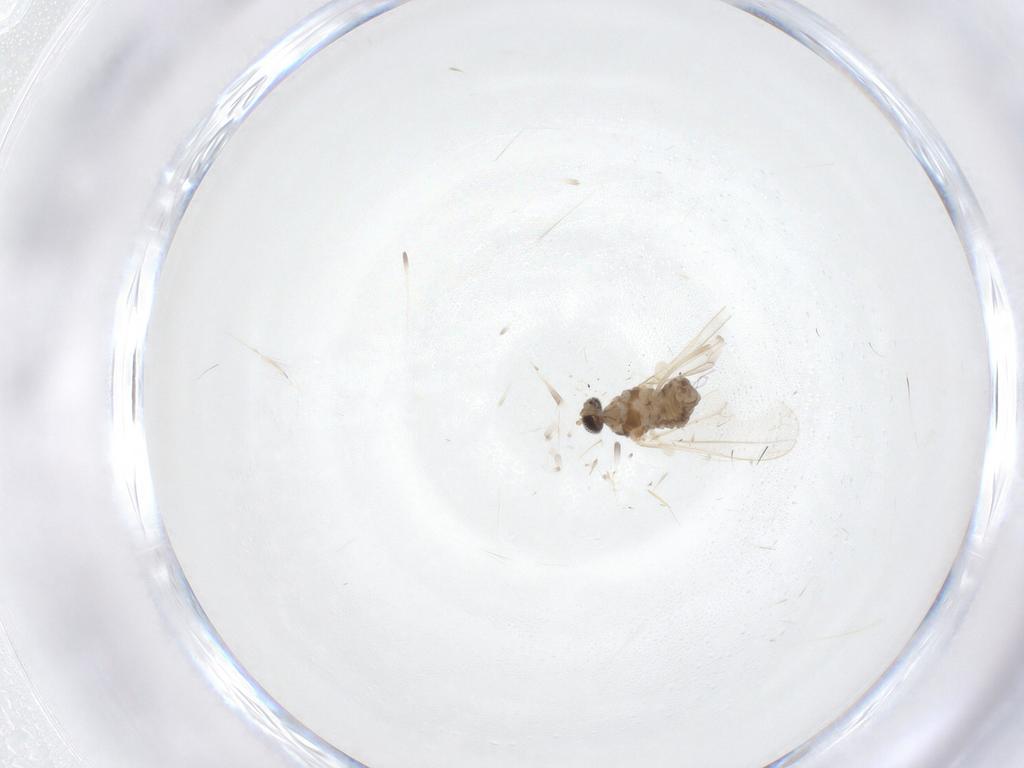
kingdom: Animalia
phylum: Arthropoda
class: Insecta
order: Diptera
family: Cecidomyiidae
